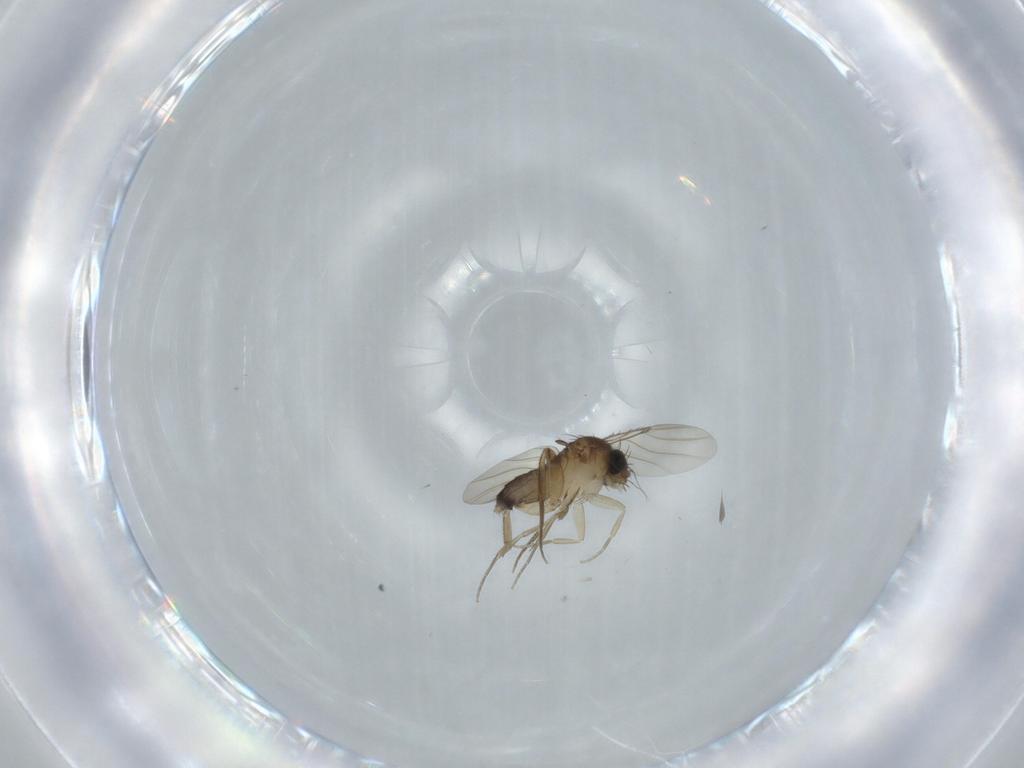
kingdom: Animalia
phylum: Arthropoda
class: Insecta
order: Diptera
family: Phoridae
